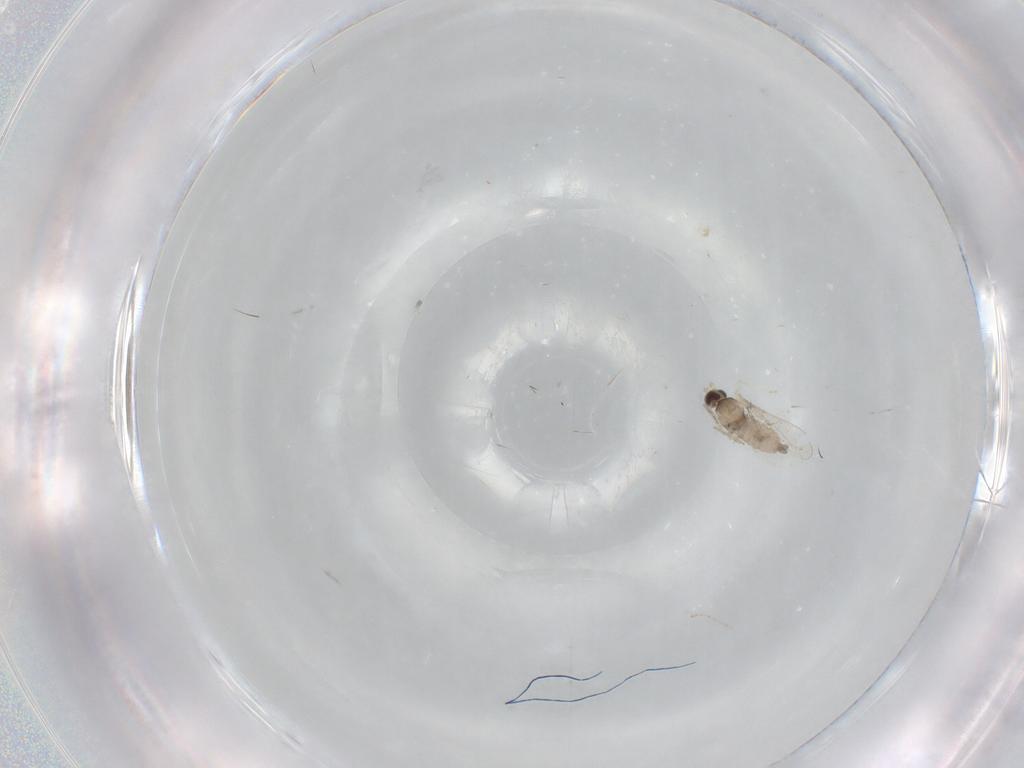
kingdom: Animalia
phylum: Arthropoda
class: Insecta
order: Diptera
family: Cecidomyiidae
